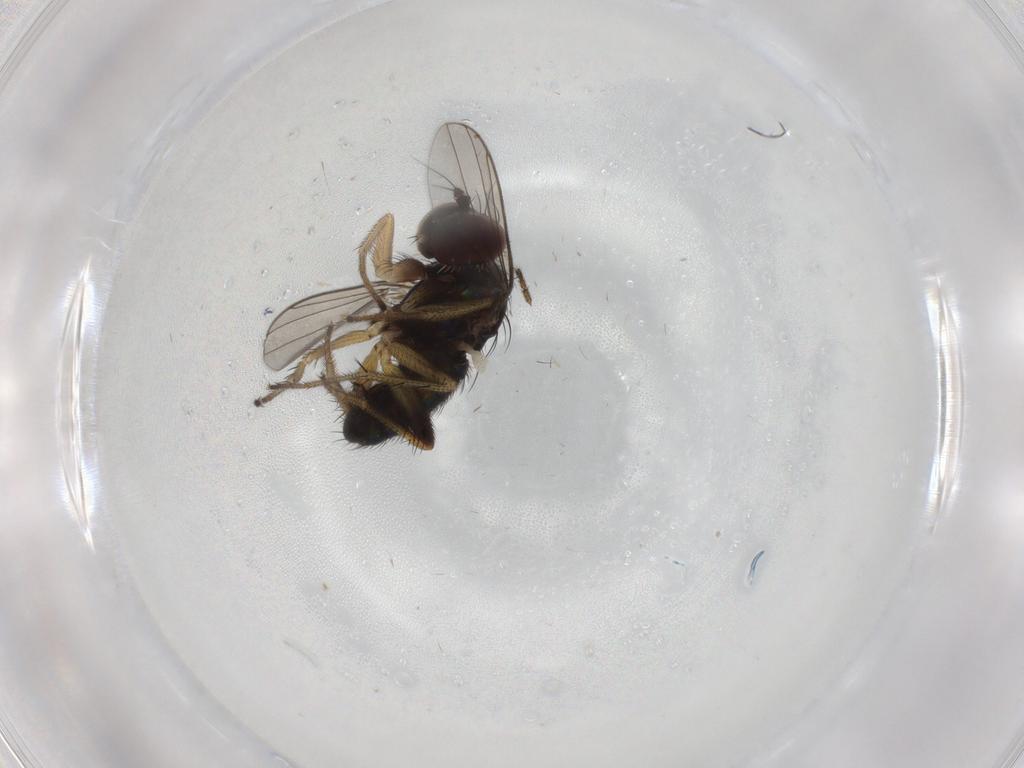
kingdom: Animalia
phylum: Arthropoda
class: Insecta
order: Diptera
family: Dolichopodidae
